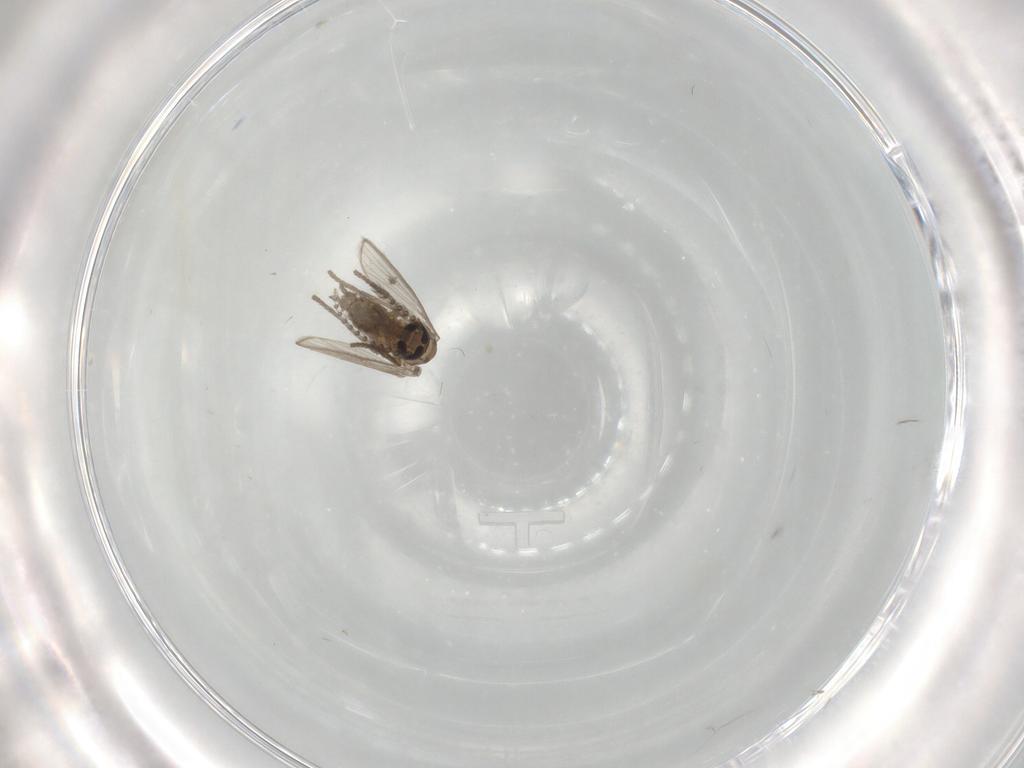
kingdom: Animalia
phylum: Arthropoda
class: Insecta
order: Diptera
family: Psychodidae
